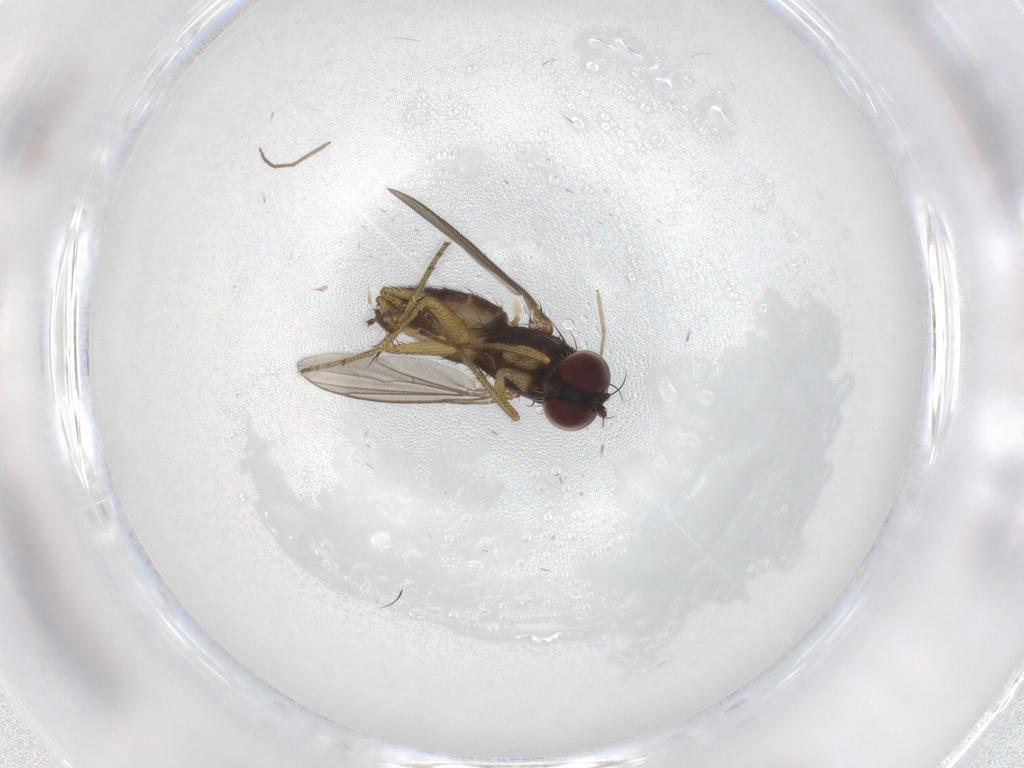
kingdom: Animalia
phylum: Arthropoda
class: Insecta
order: Diptera
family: Chironomidae
